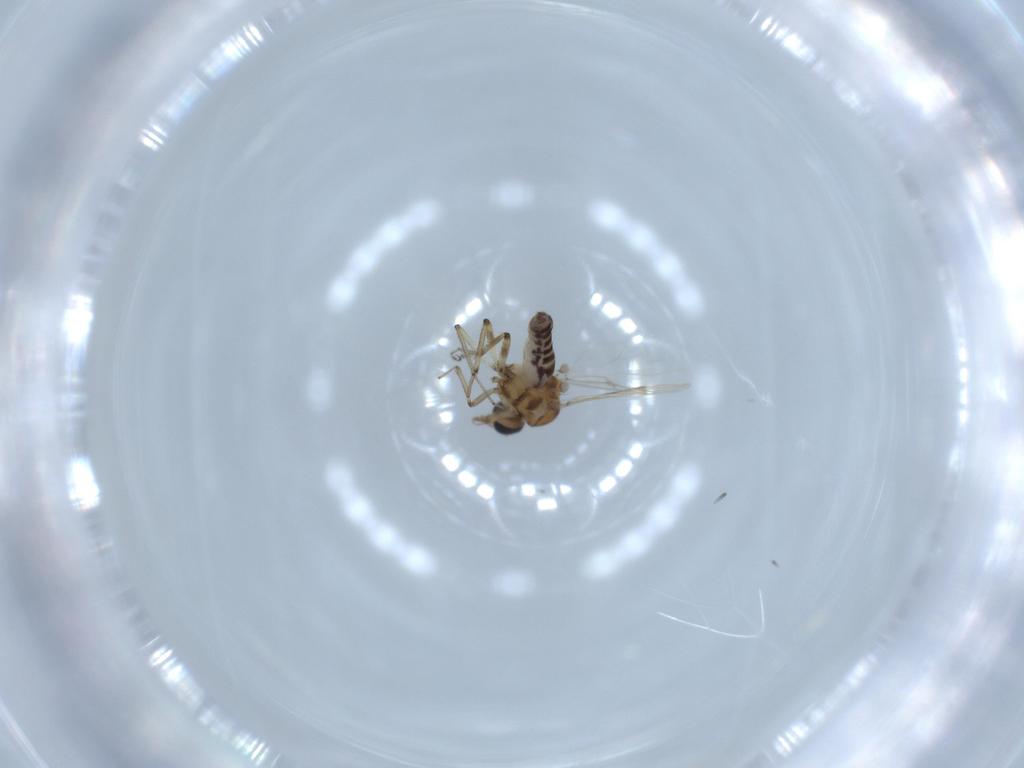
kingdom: Animalia
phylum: Arthropoda
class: Insecta
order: Diptera
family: Ceratopogonidae
